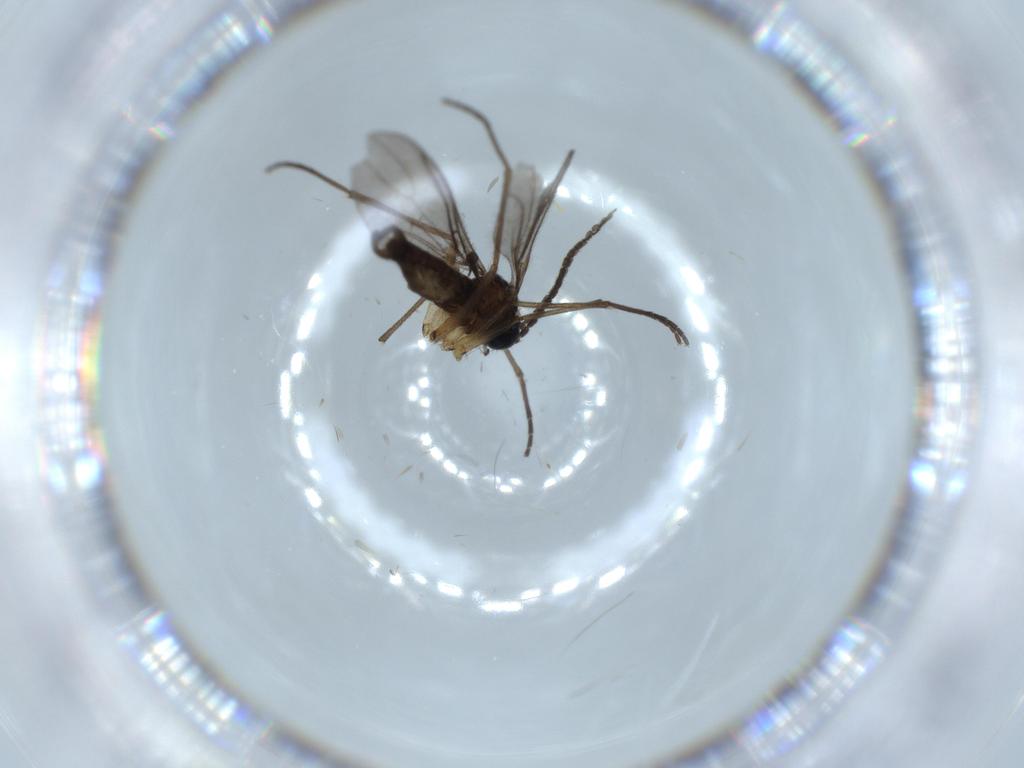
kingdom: Animalia
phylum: Arthropoda
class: Insecta
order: Diptera
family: Sciaridae
